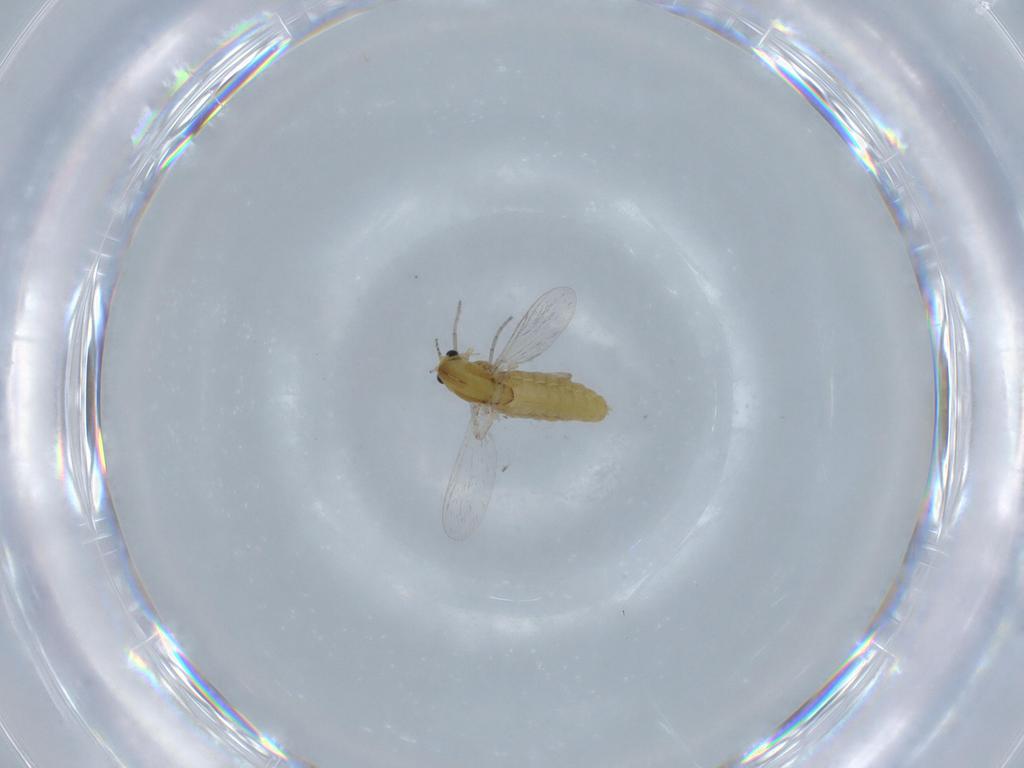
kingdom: Animalia
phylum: Arthropoda
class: Insecta
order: Diptera
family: Chironomidae
